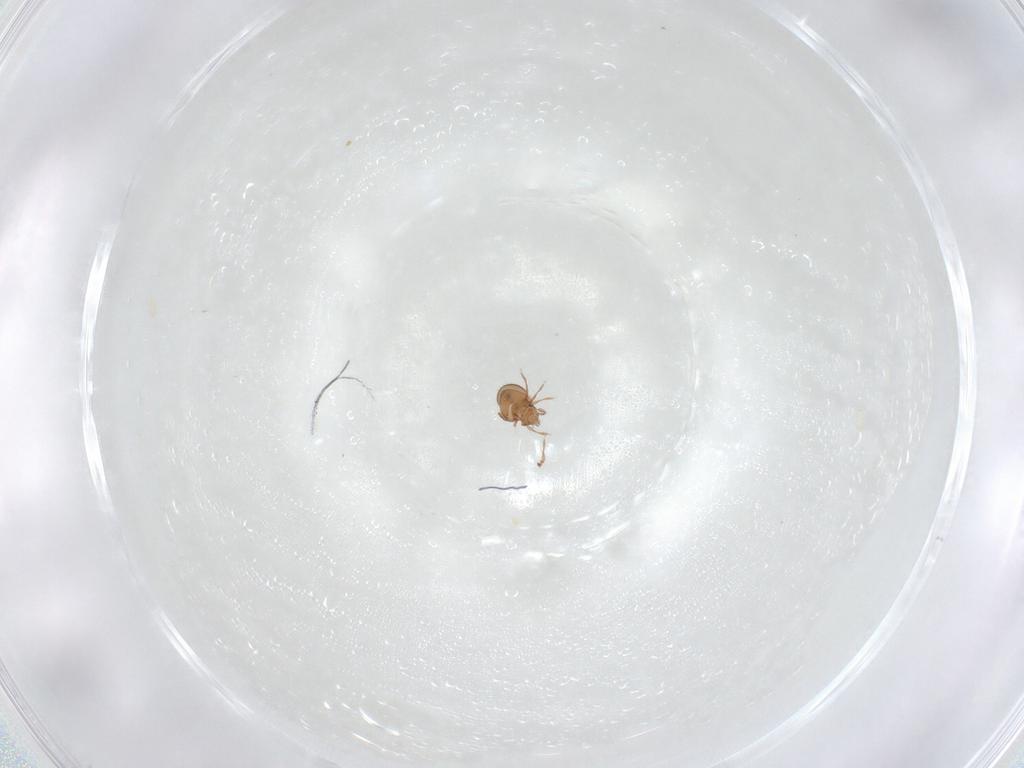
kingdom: Animalia
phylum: Arthropoda
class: Arachnida
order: Sarcoptiformes
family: Oribatulidae
